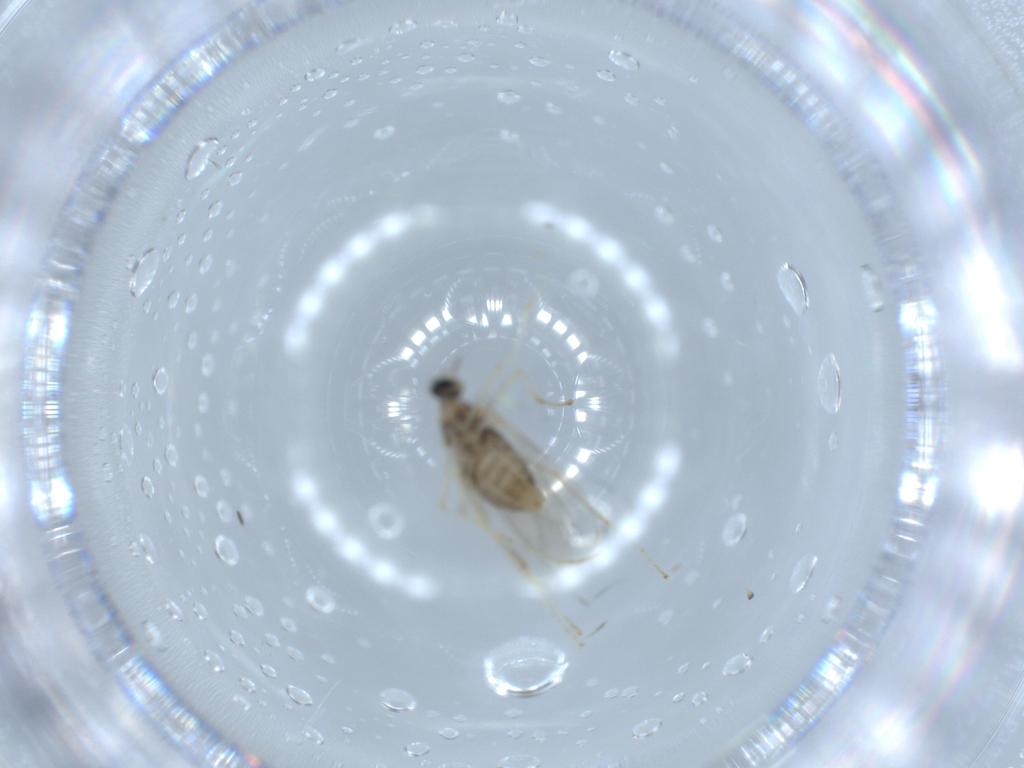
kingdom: Animalia
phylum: Arthropoda
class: Insecta
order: Diptera
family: Cecidomyiidae
